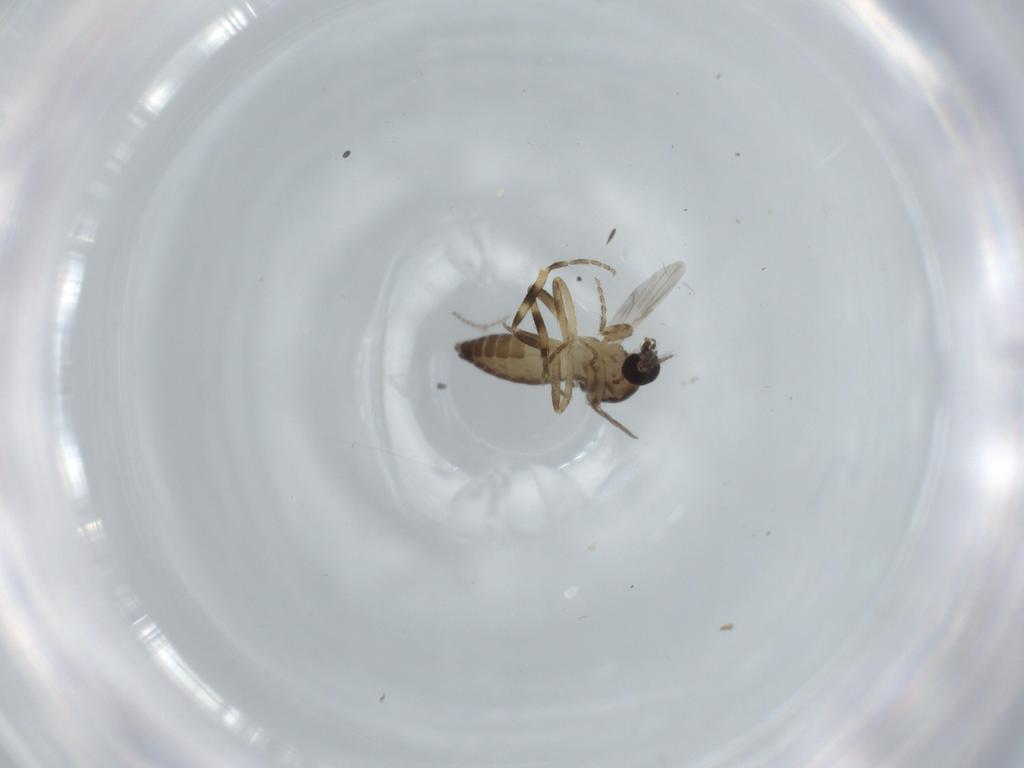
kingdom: Animalia
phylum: Arthropoda
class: Insecta
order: Diptera
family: Ceratopogonidae
